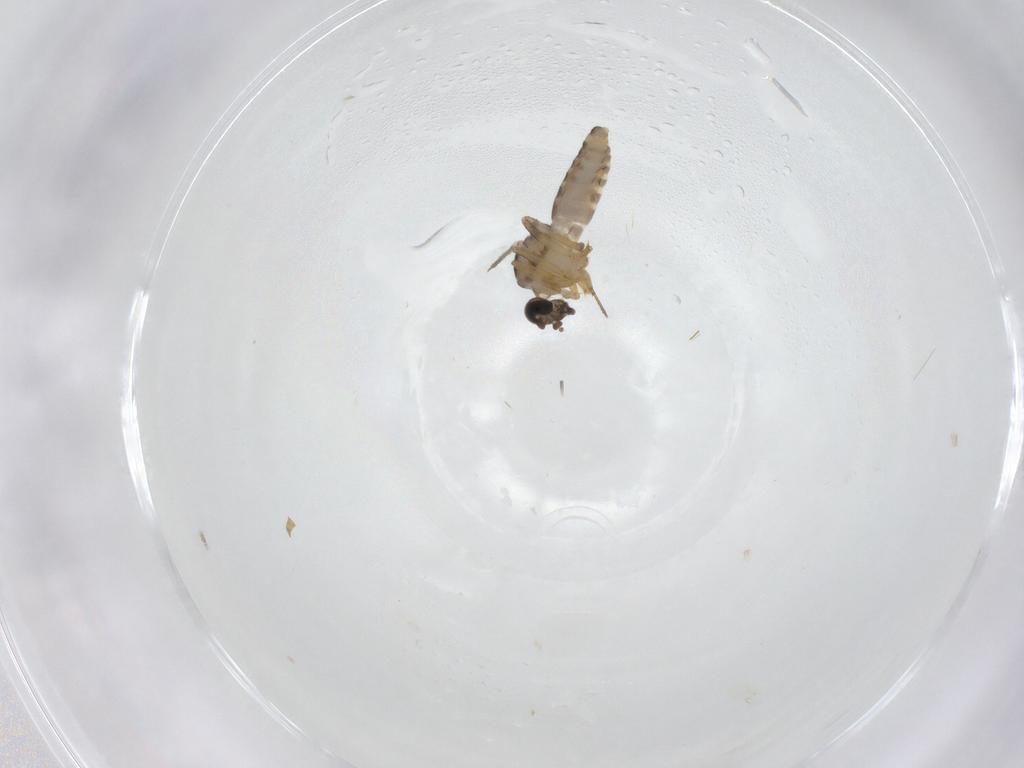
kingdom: Animalia
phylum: Arthropoda
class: Insecta
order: Diptera
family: Ceratopogonidae
